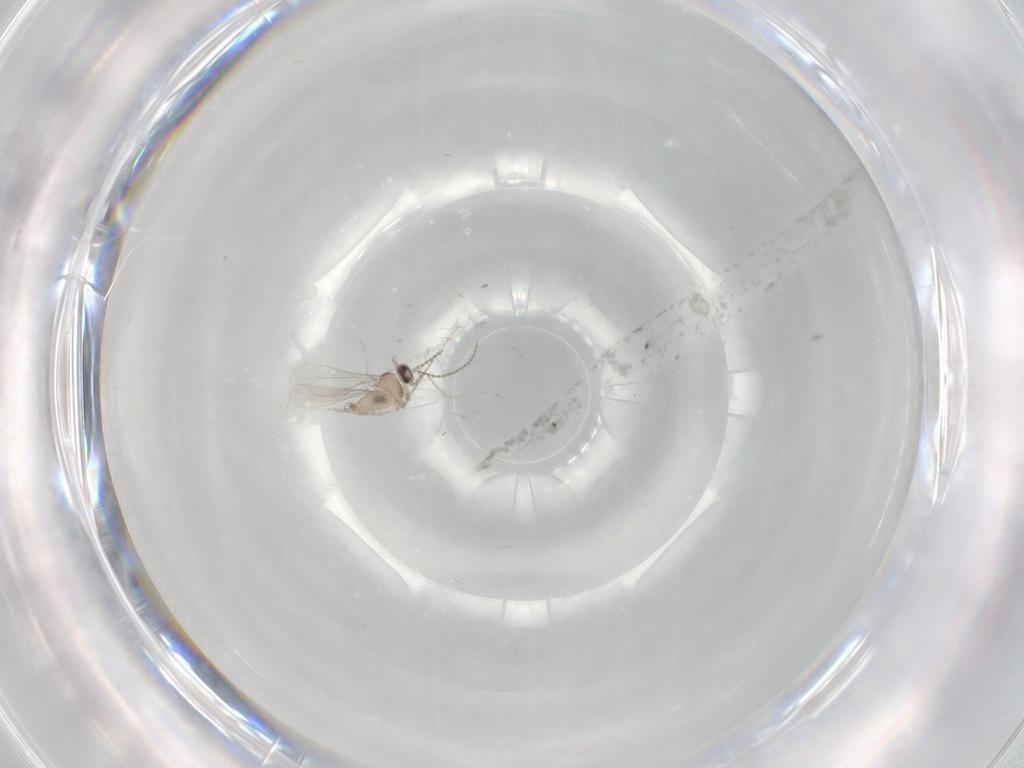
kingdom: Animalia
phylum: Arthropoda
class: Insecta
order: Diptera
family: Cecidomyiidae
